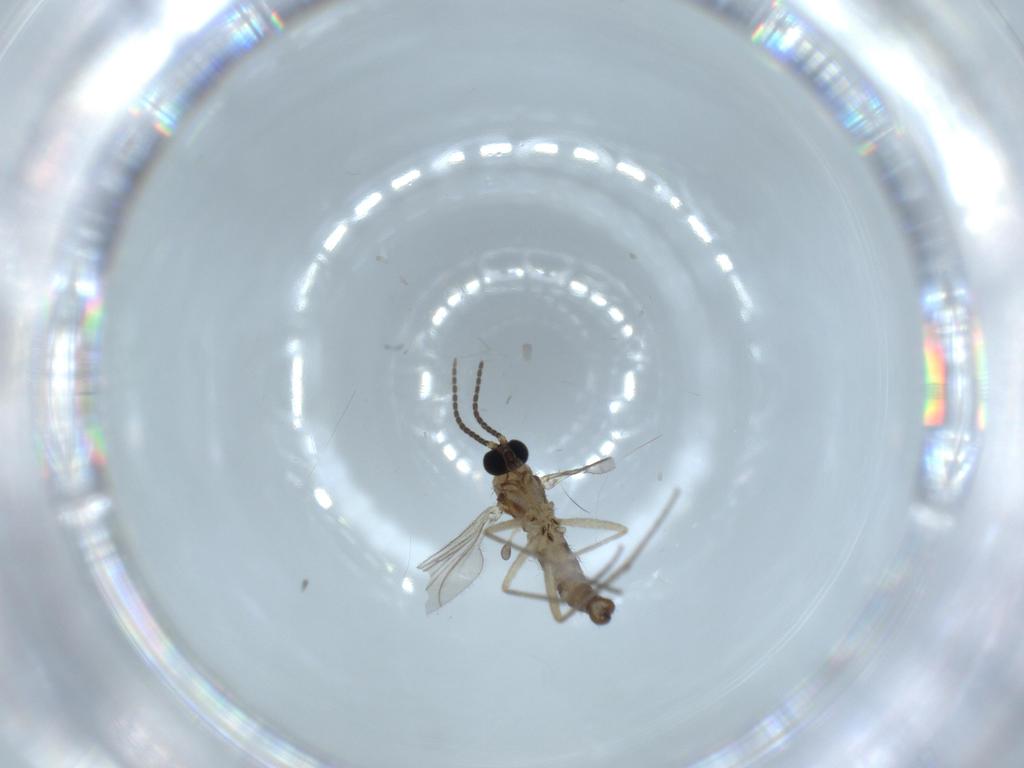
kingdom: Animalia
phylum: Arthropoda
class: Insecta
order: Diptera
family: Sciaridae
